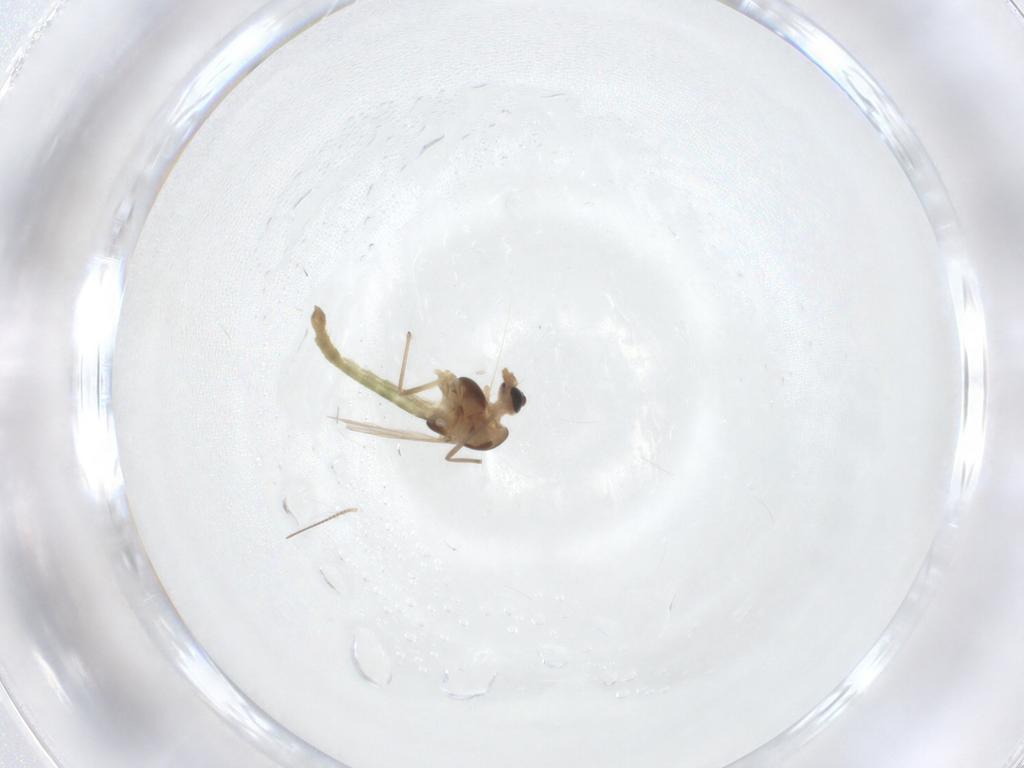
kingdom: Animalia
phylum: Arthropoda
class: Insecta
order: Diptera
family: Chironomidae
